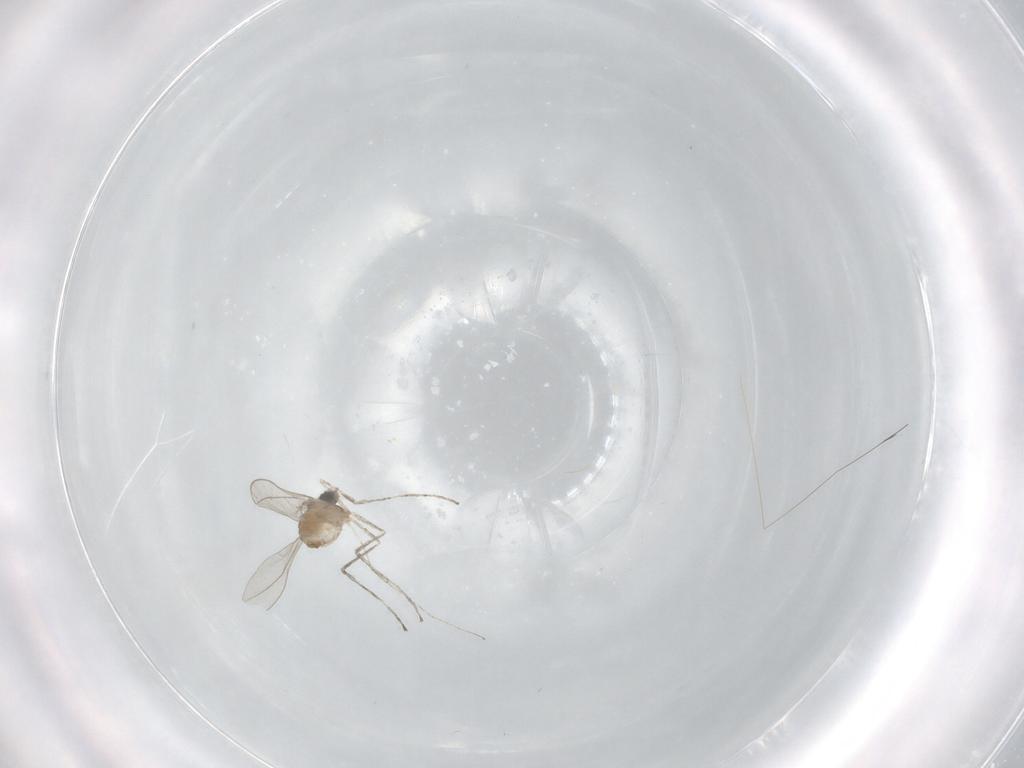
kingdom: Animalia
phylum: Arthropoda
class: Insecta
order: Diptera
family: Cecidomyiidae
